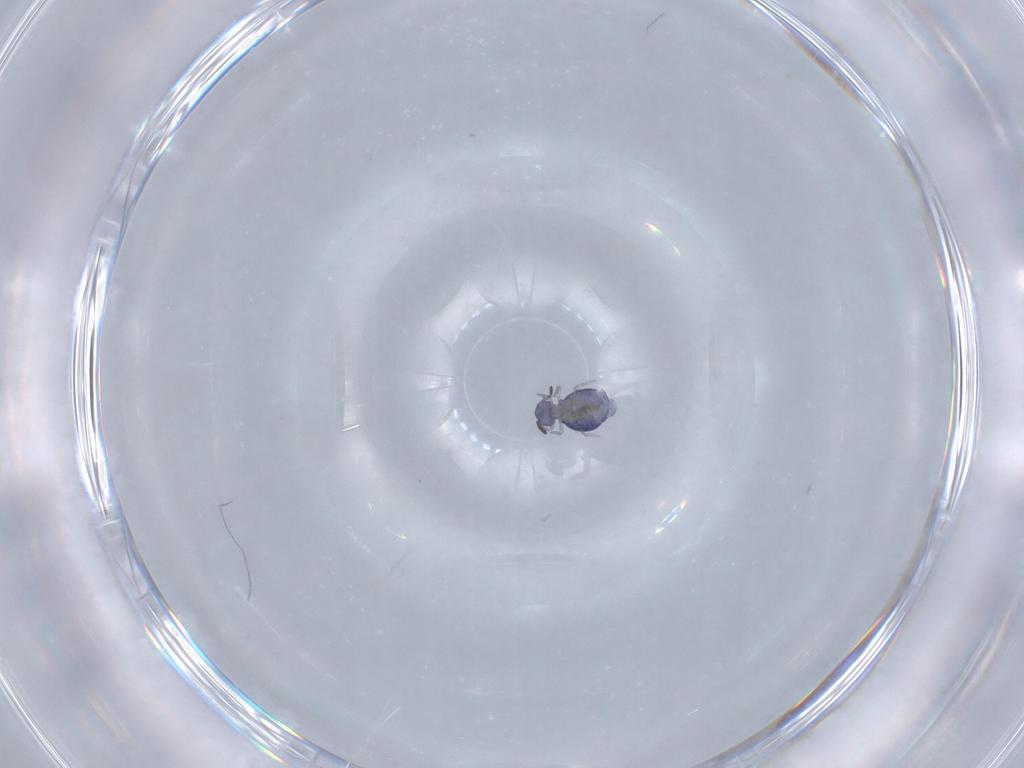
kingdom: Animalia
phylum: Arthropoda
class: Collembola
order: Symphypleona
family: Katiannidae
